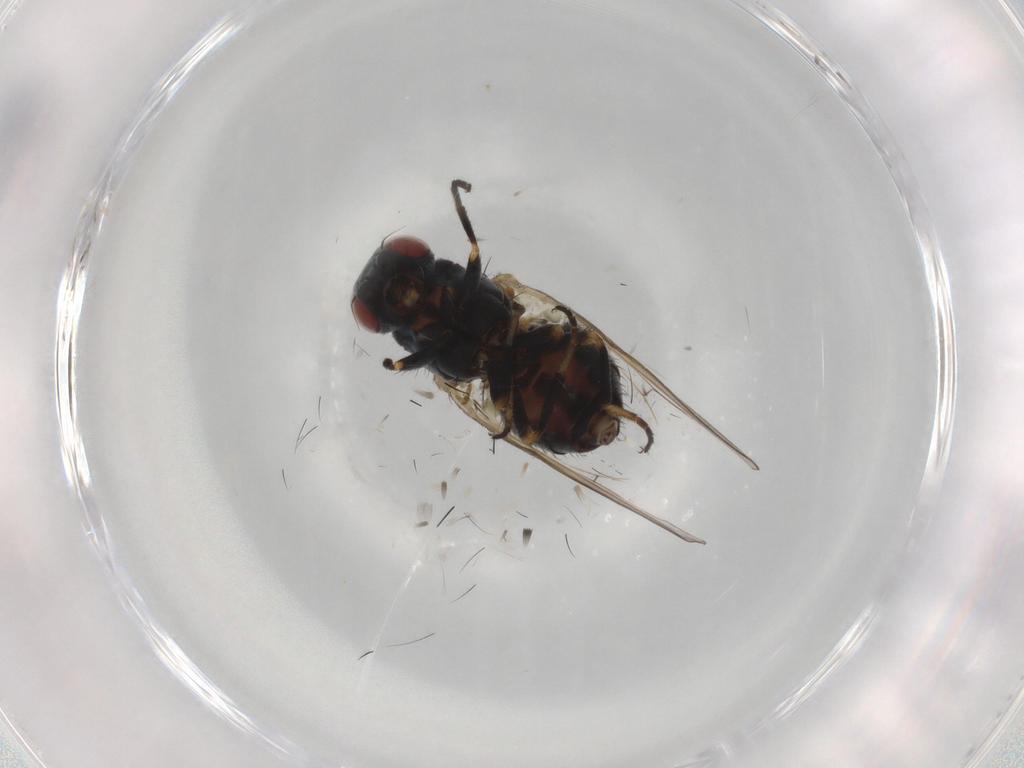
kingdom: Animalia
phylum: Arthropoda
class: Insecta
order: Diptera
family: Chamaemyiidae
